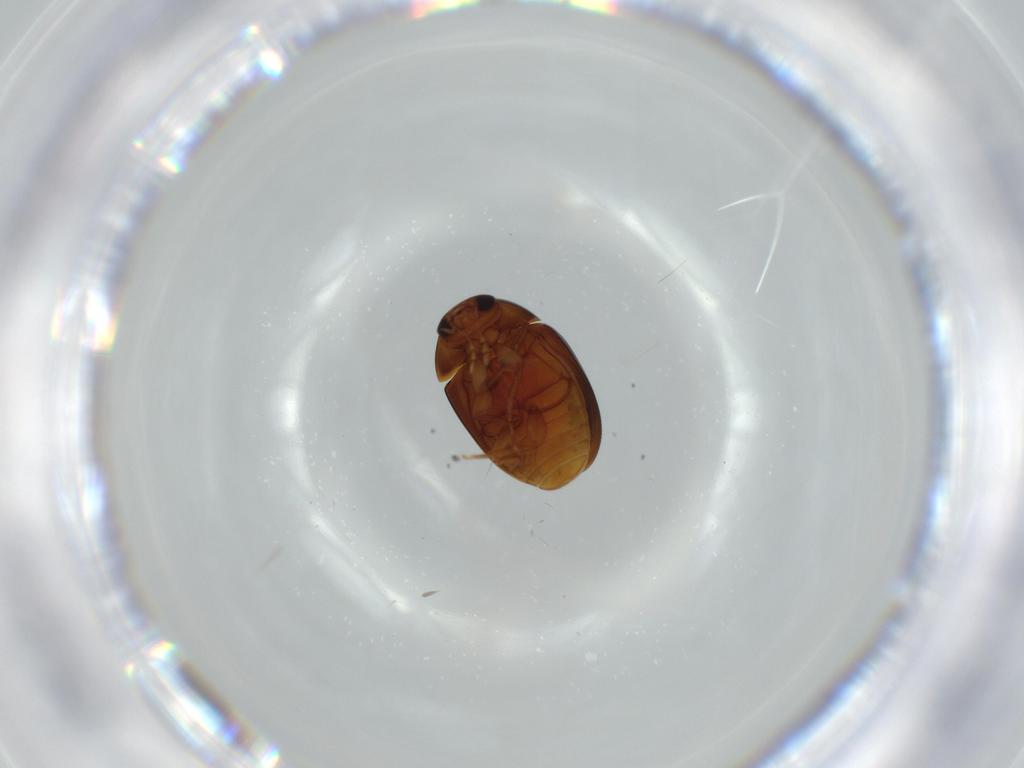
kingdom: Animalia
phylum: Arthropoda
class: Insecta
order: Coleoptera
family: Phalacridae
